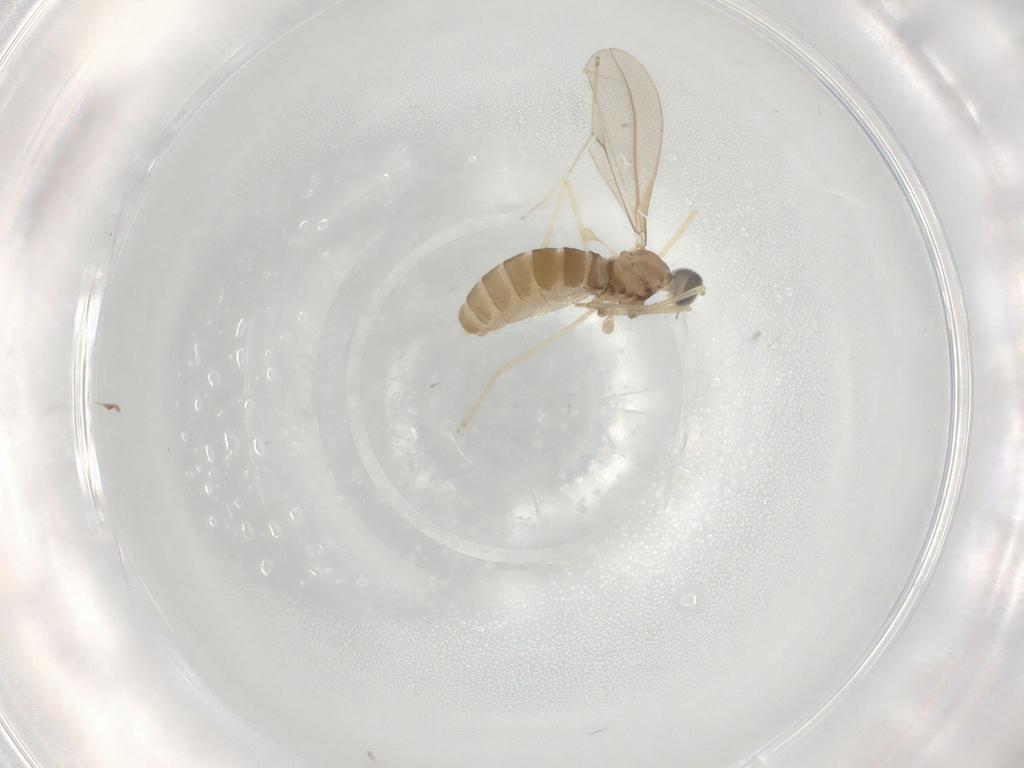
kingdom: Animalia
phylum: Arthropoda
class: Insecta
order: Diptera
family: Cecidomyiidae
